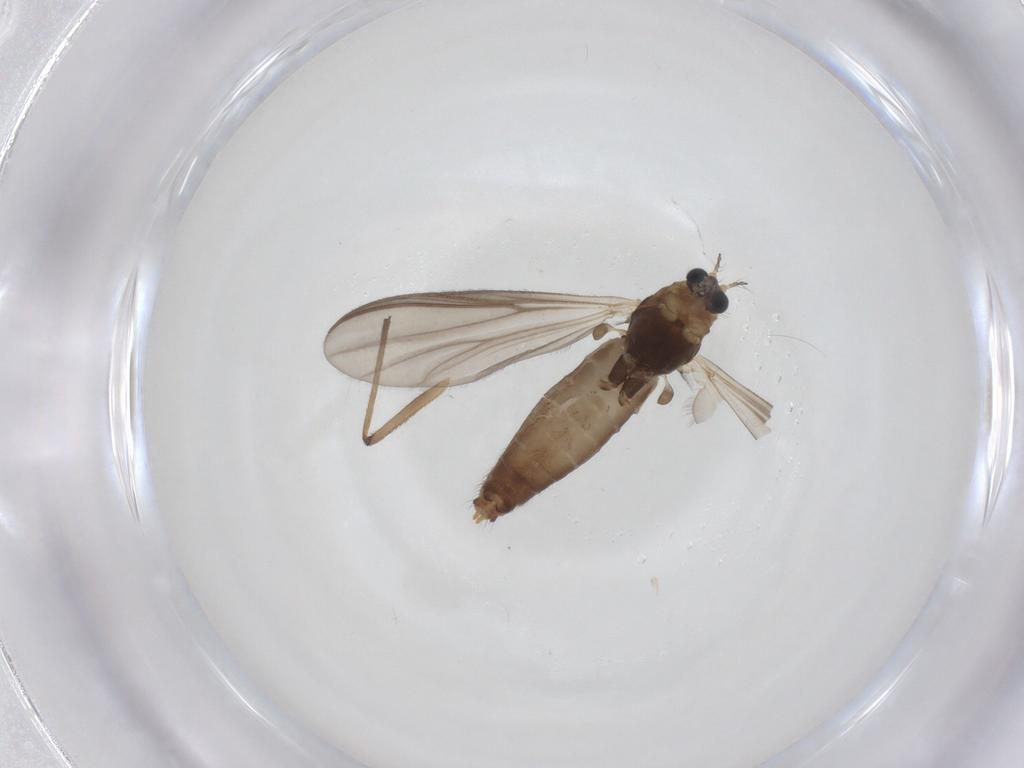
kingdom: Animalia
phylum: Arthropoda
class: Insecta
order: Diptera
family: Chironomidae
